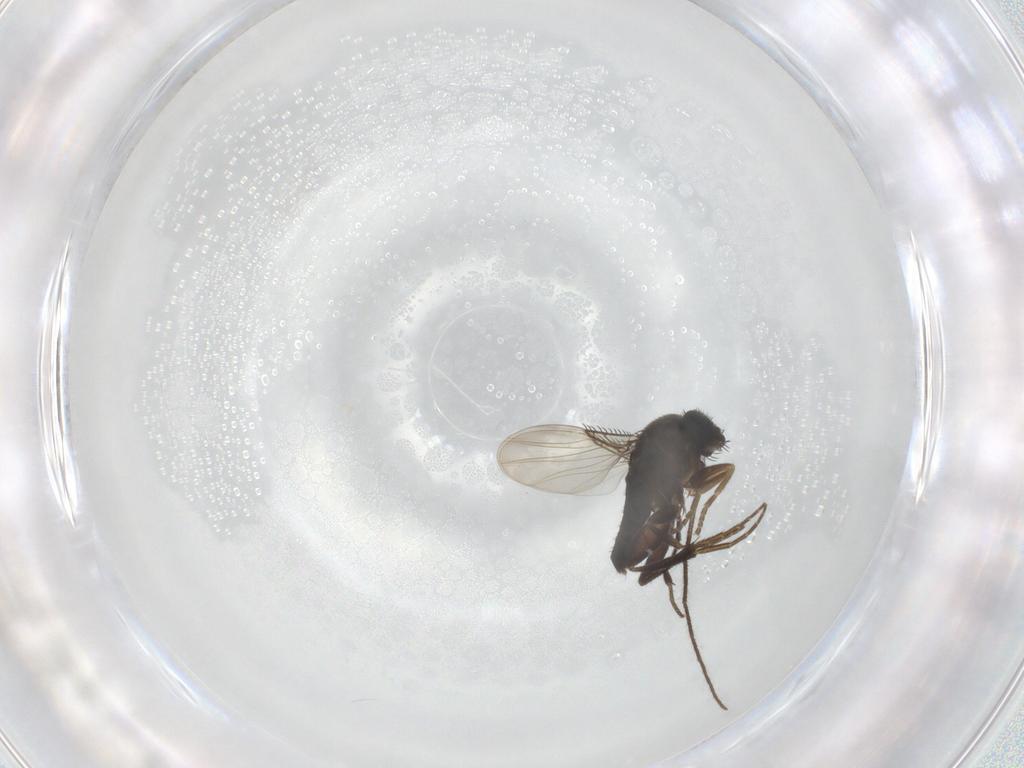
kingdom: Animalia
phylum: Arthropoda
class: Insecta
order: Diptera
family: Phoridae
